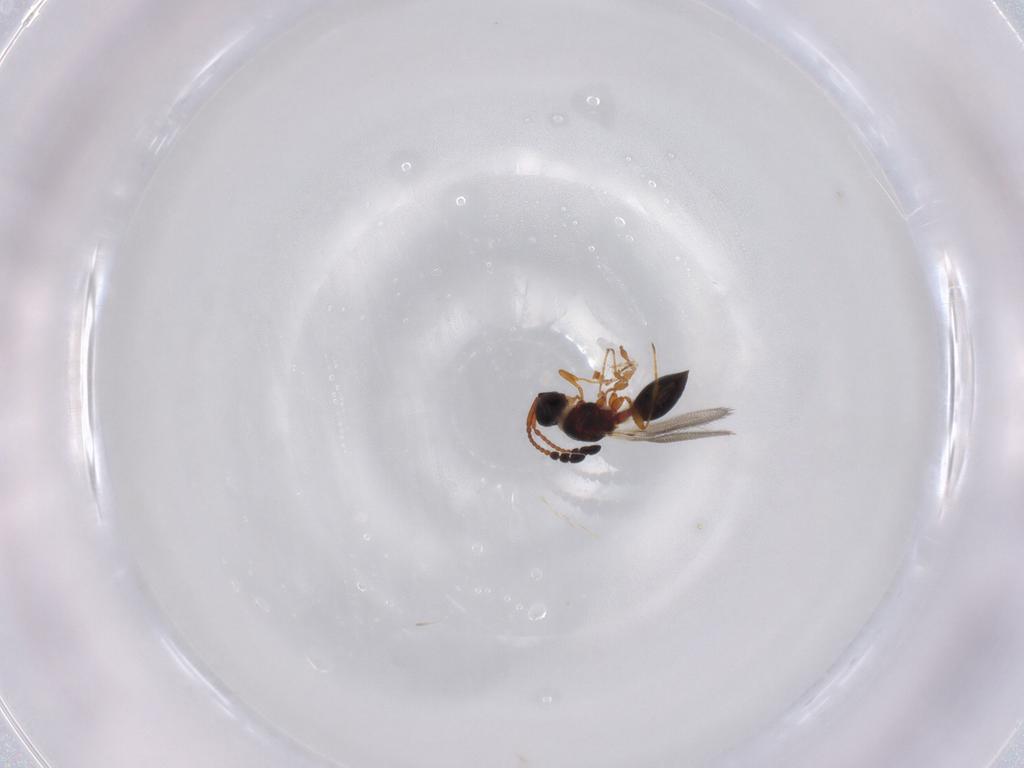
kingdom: Animalia
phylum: Arthropoda
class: Insecta
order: Hymenoptera
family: Diapriidae
